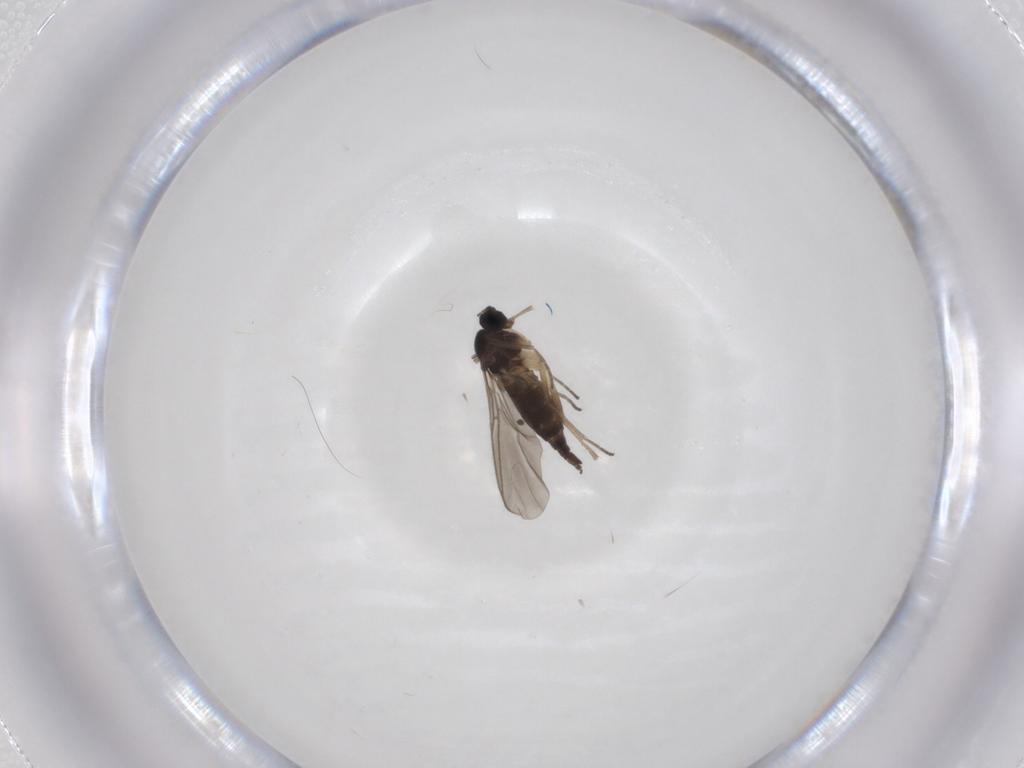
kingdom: Animalia
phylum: Arthropoda
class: Insecta
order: Diptera
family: Sciaridae
